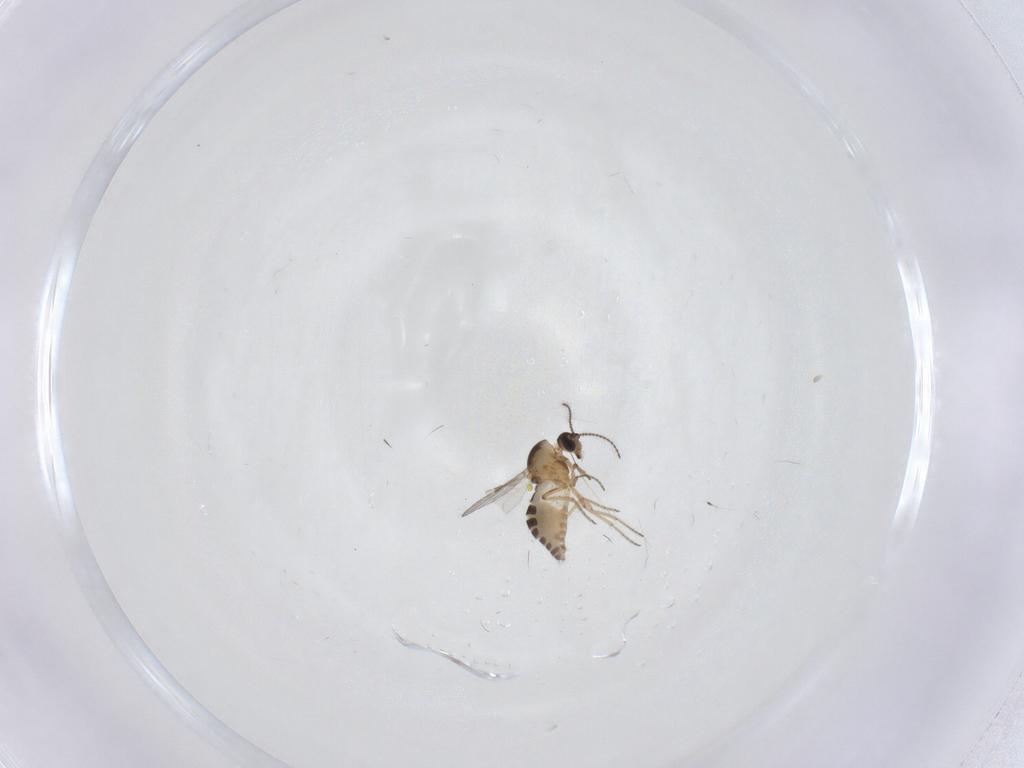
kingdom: Animalia
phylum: Arthropoda
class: Insecta
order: Diptera
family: Ceratopogonidae
